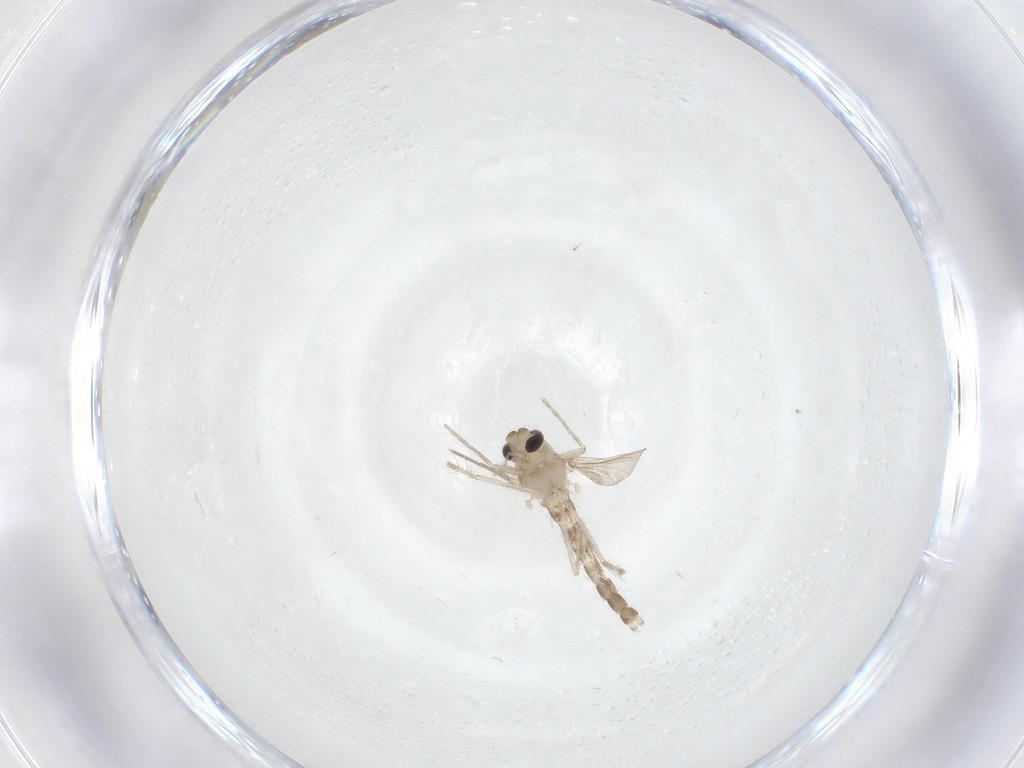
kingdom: Animalia
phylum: Arthropoda
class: Insecta
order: Diptera
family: Chironomidae
